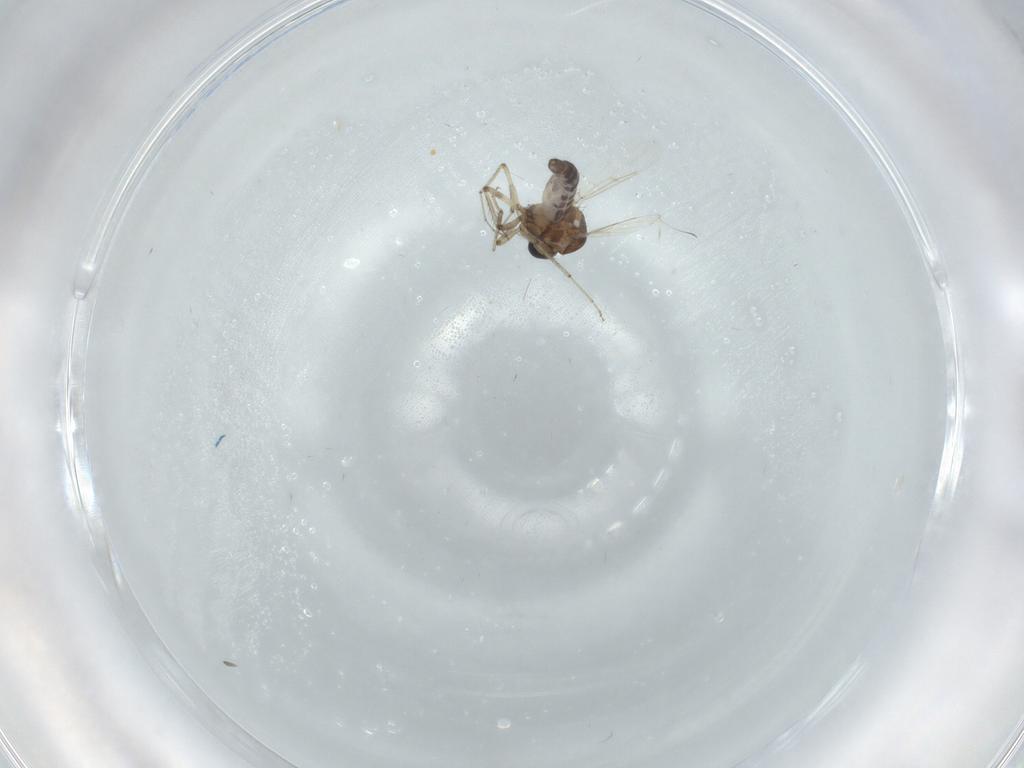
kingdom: Animalia
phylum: Arthropoda
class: Insecta
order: Diptera
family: Ceratopogonidae
